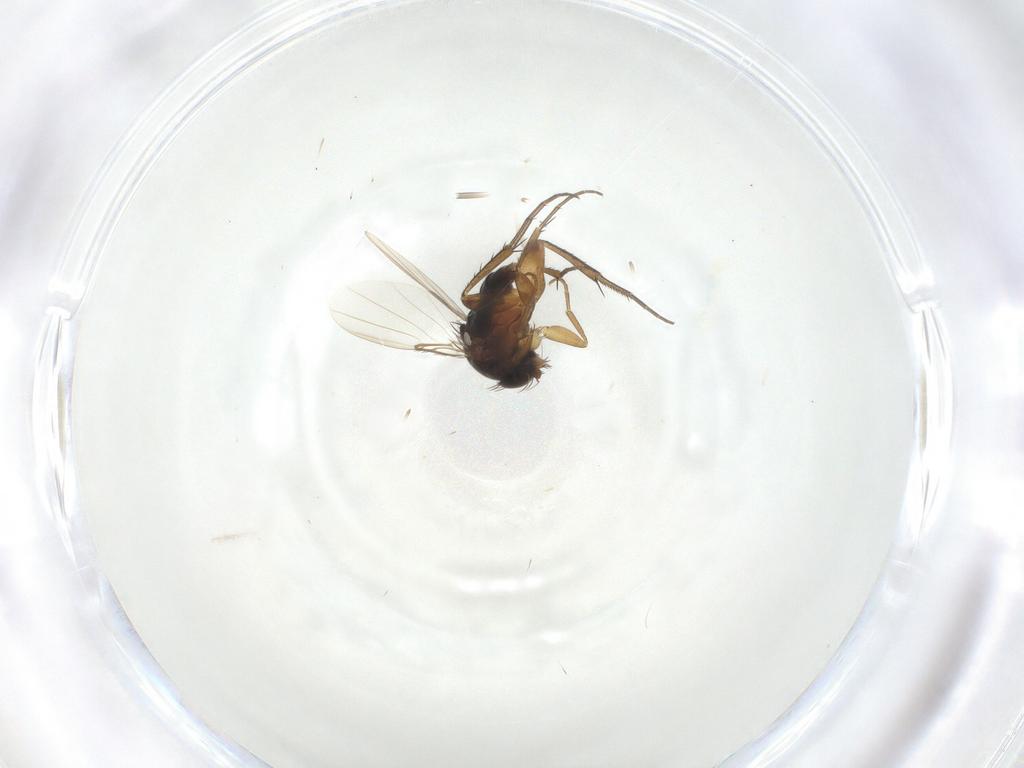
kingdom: Animalia
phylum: Arthropoda
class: Insecta
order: Diptera
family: Phoridae
